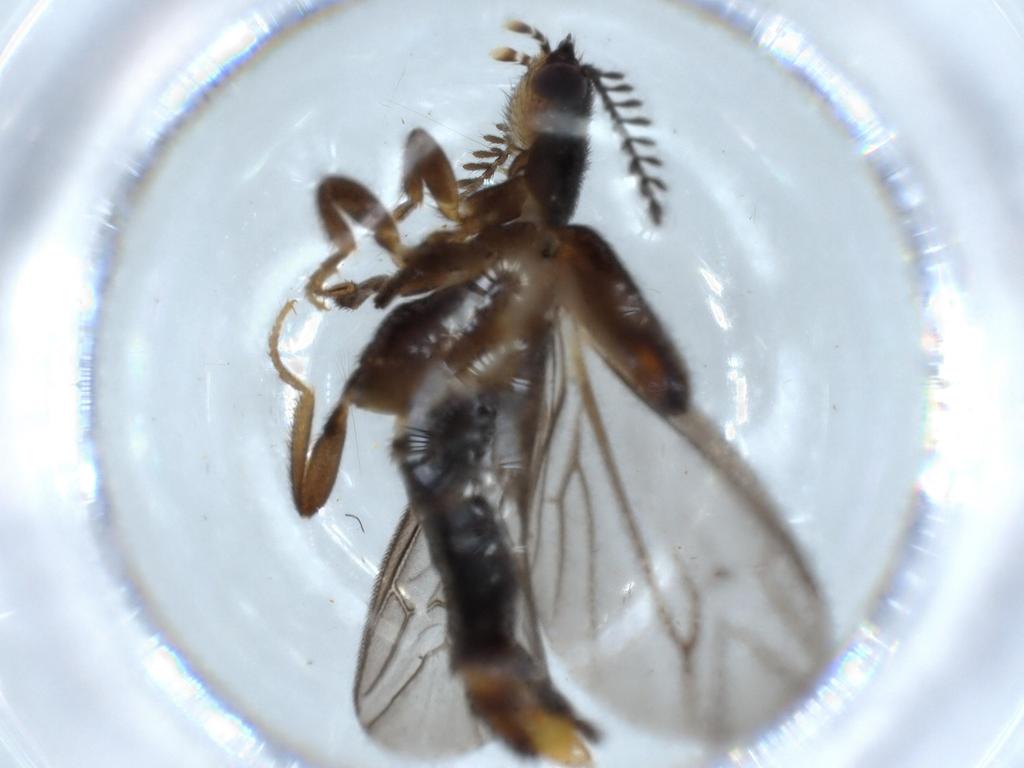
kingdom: Animalia
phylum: Arthropoda
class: Insecta
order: Coleoptera
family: Phengodidae
